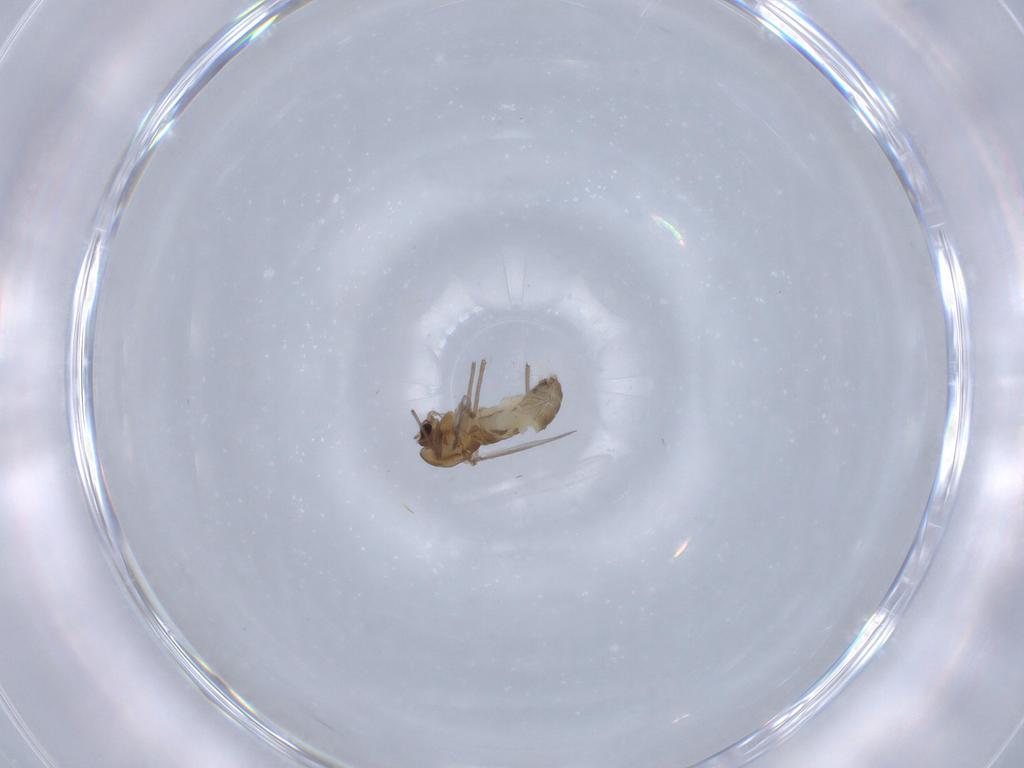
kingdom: Animalia
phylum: Arthropoda
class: Insecta
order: Diptera
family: Chironomidae
